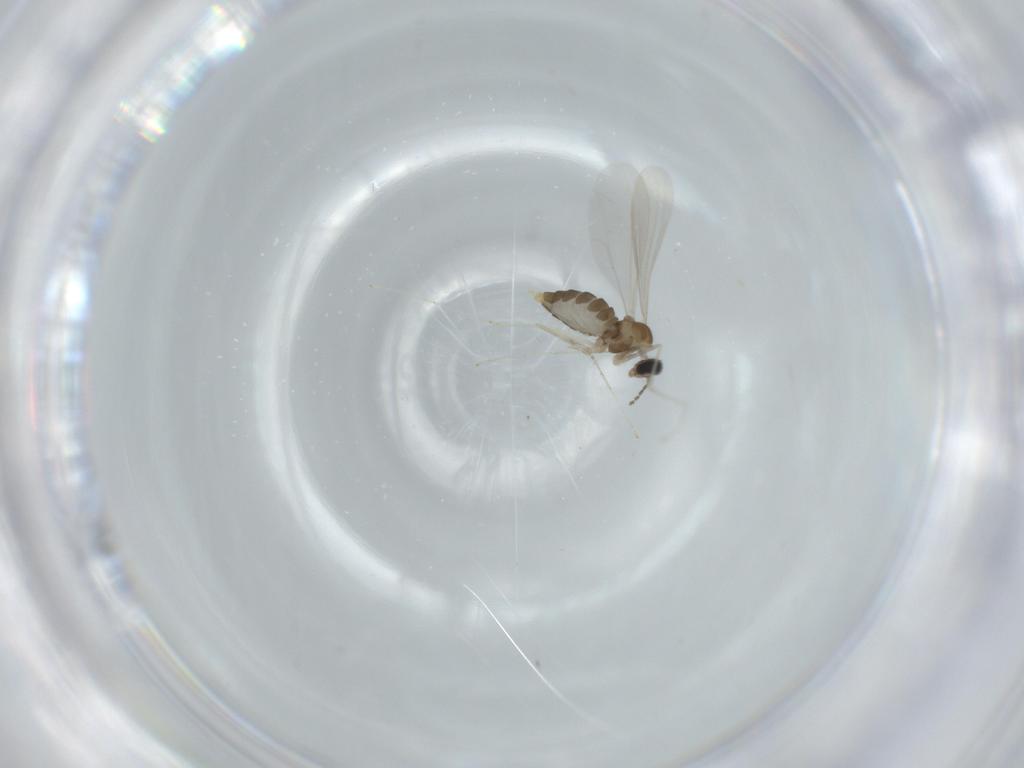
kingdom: Animalia
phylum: Arthropoda
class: Insecta
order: Diptera
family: Cecidomyiidae
